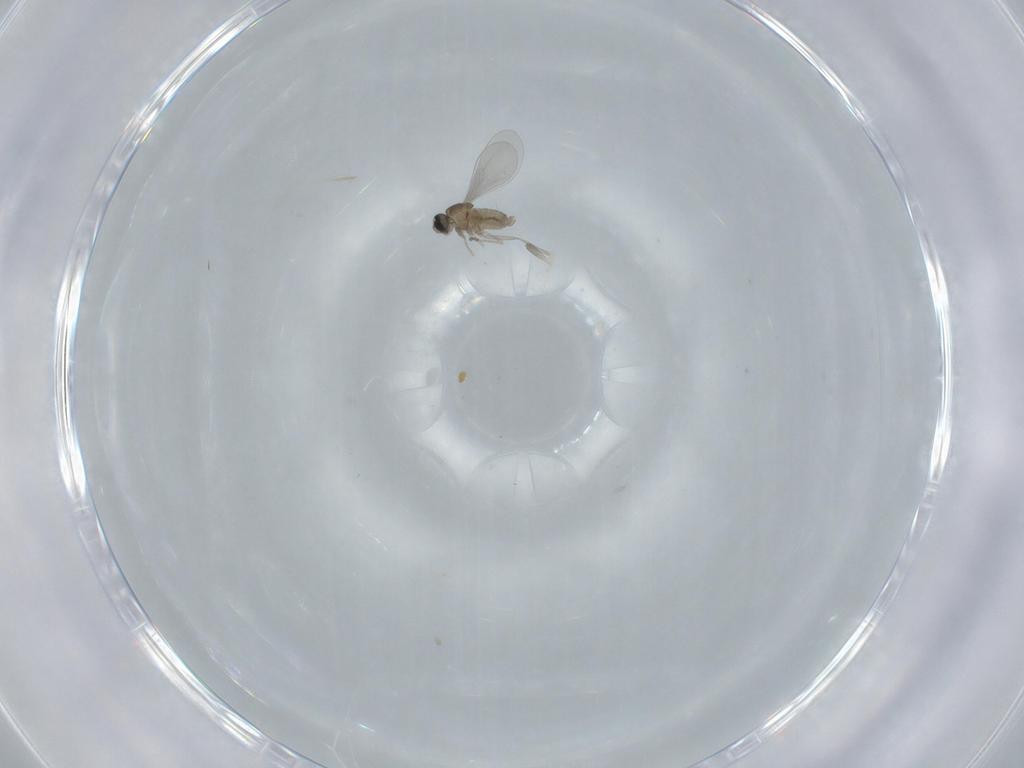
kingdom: Animalia
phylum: Arthropoda
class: Insecta
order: Diptera
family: Cecidomyiidae
